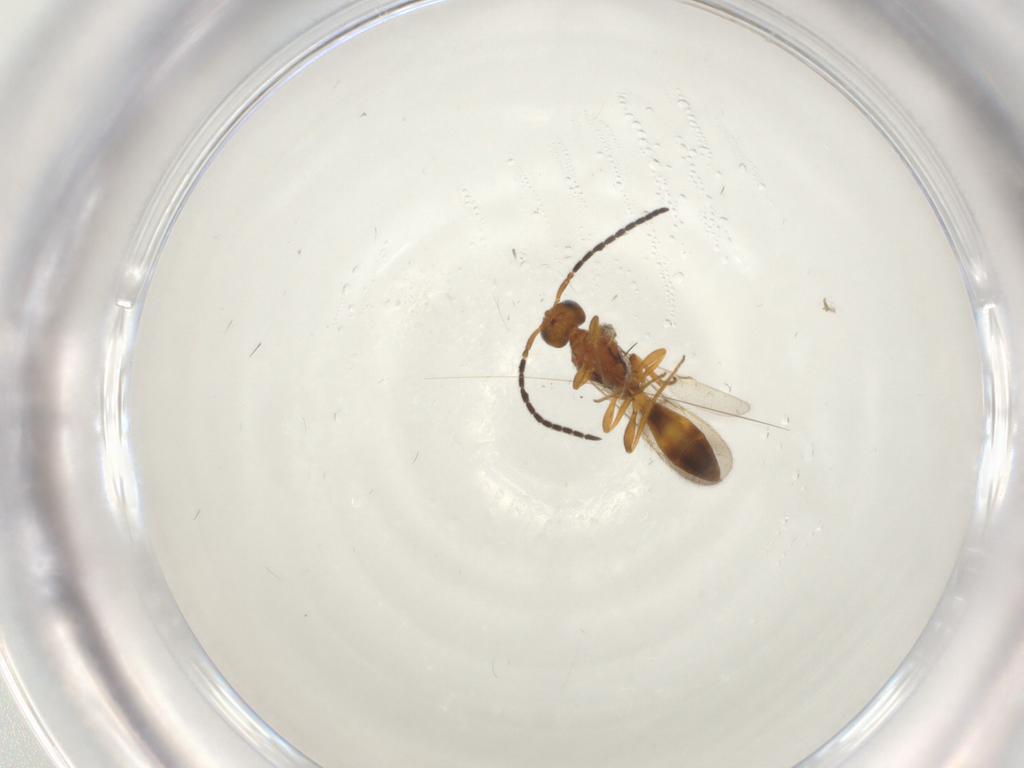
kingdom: Animalia
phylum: Arthropoda
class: Insecta
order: Hymenoptera
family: Scelionidae
